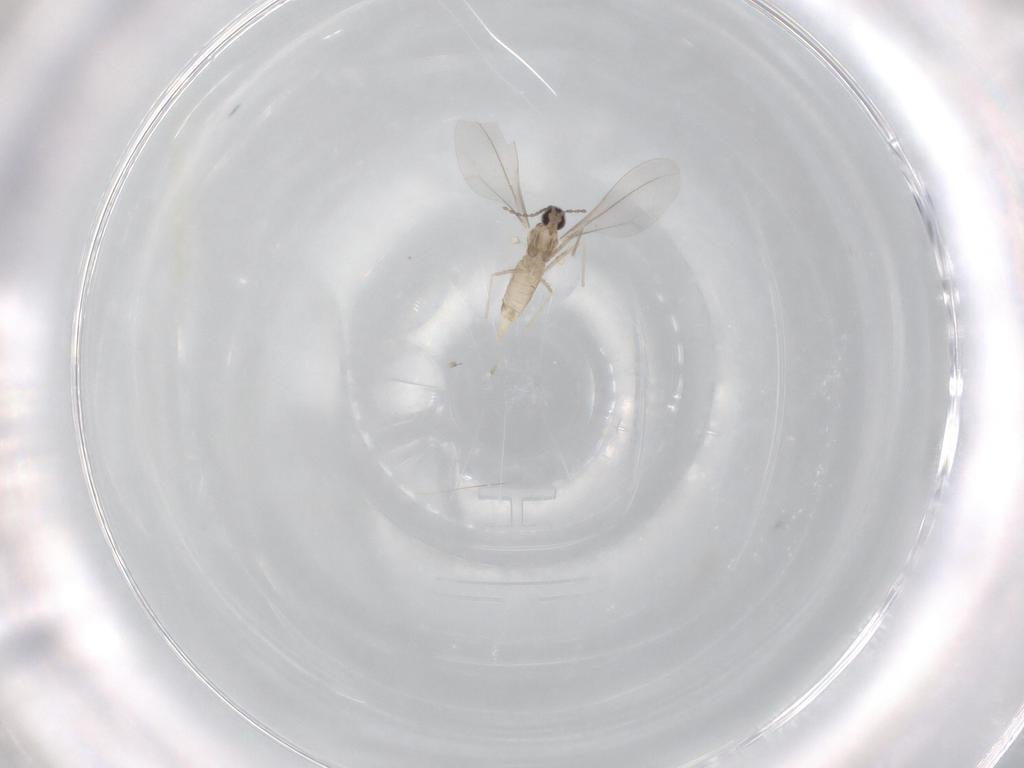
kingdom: Animalia
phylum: Arthropoda
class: Insecta
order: Diptera
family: Cecidomyiidae
